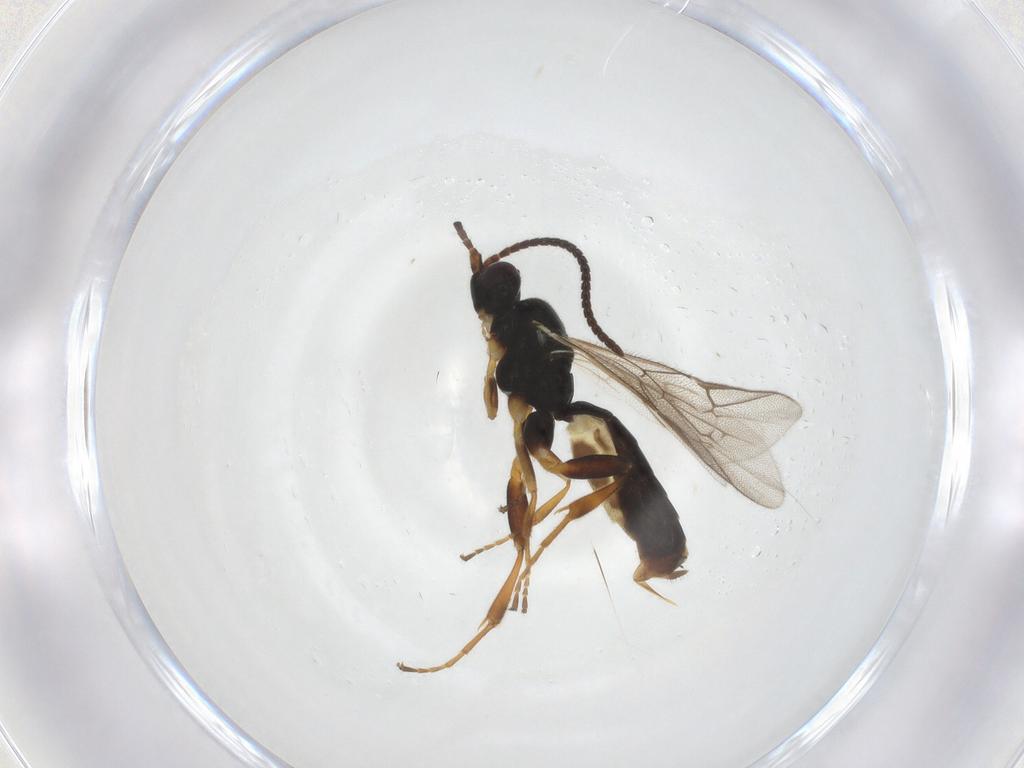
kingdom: Animalia
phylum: Arthropoda
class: Insecta
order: Hymenoptera
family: Ichneumonidae
